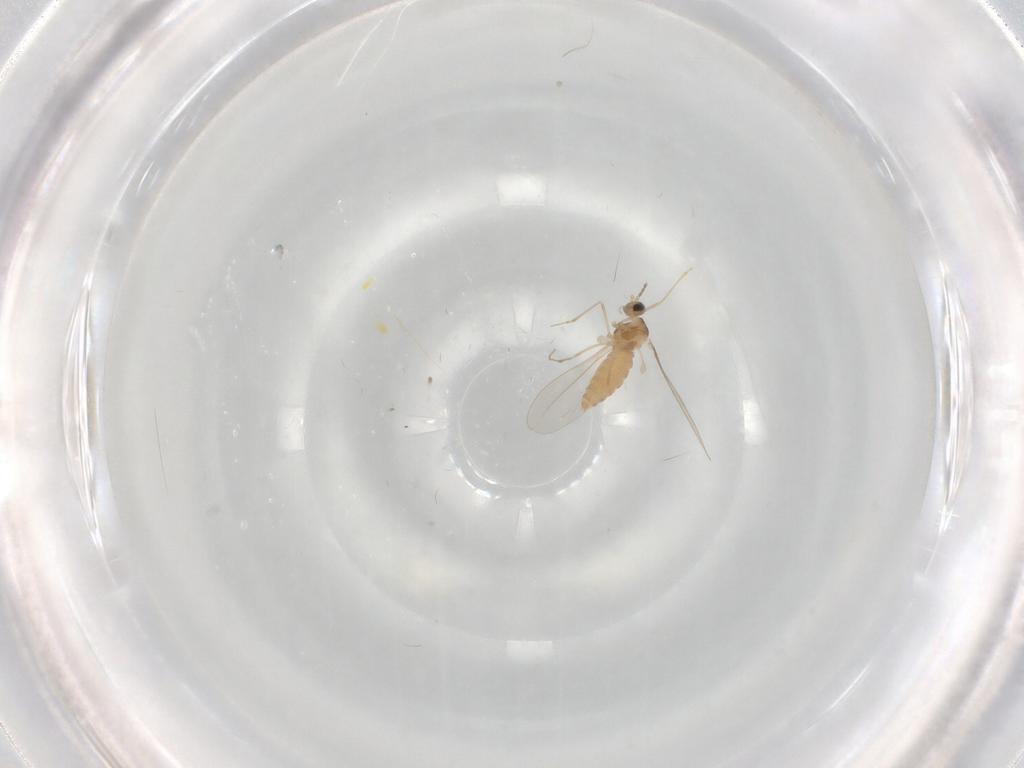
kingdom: Animalia
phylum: Arthropoda
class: Insecta
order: Diptera
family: Cecidomyiidae
